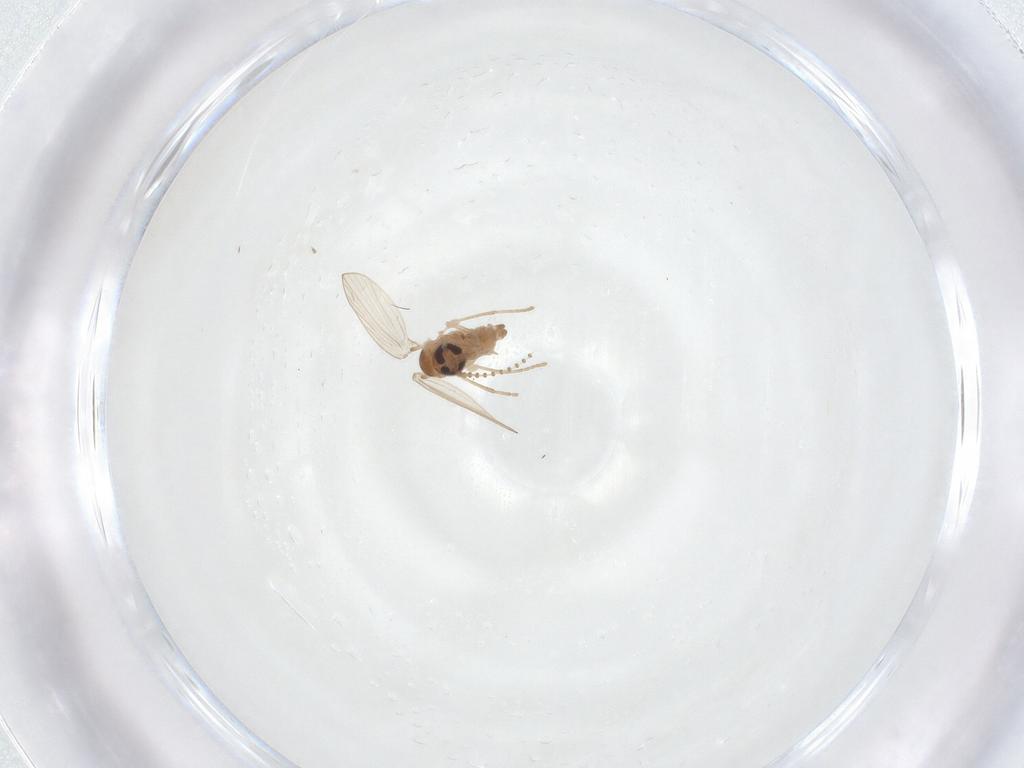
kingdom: Animalia
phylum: Arthropoda
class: Insecta
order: Diptera
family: Psychodidae
